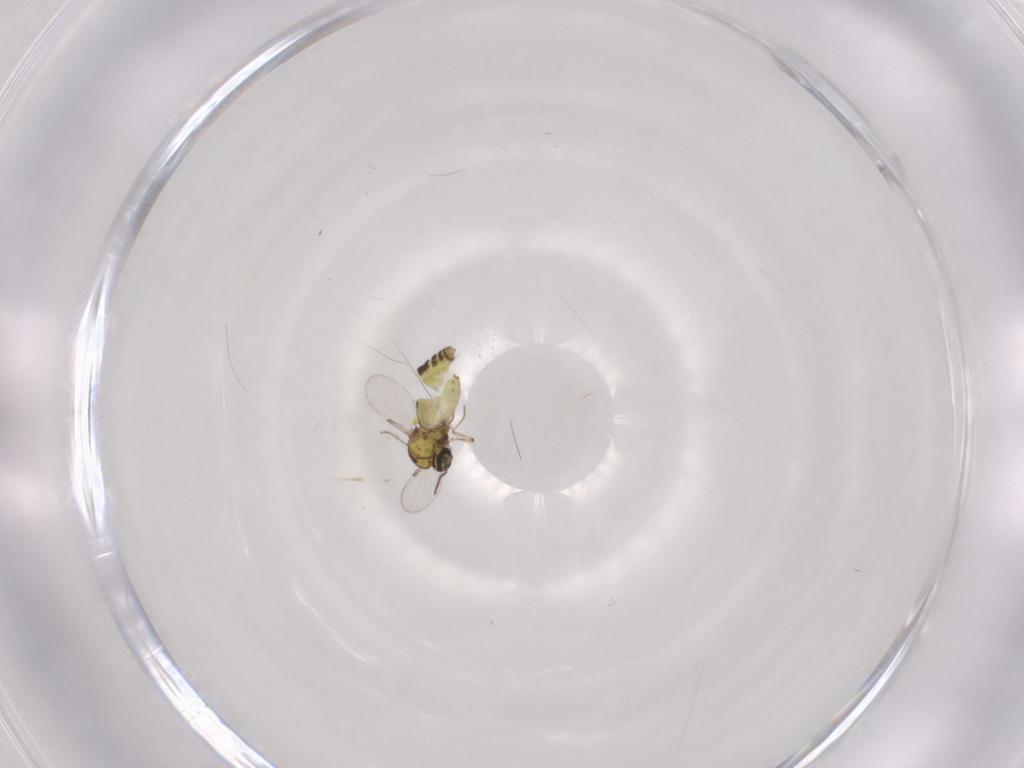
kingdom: Animalia
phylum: Arthropoda
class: Insecta
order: Diptera
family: Ceratopogonidae
